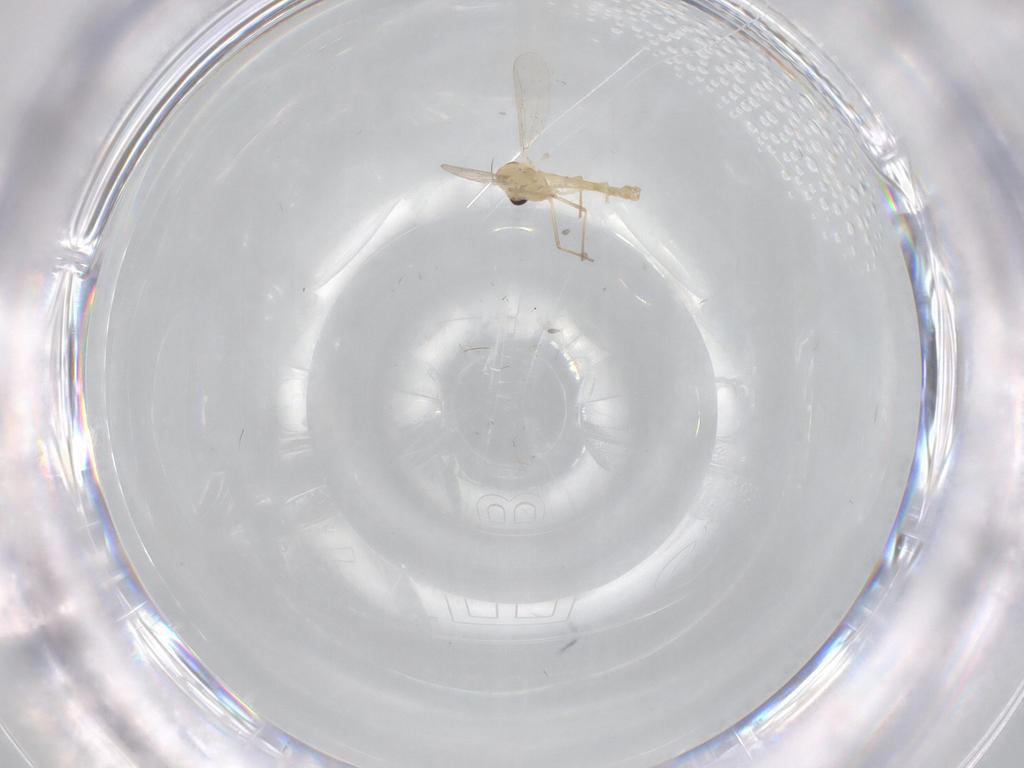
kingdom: Animalia
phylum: Arthropoda
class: Insecta
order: Diptera
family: Chironomidae
